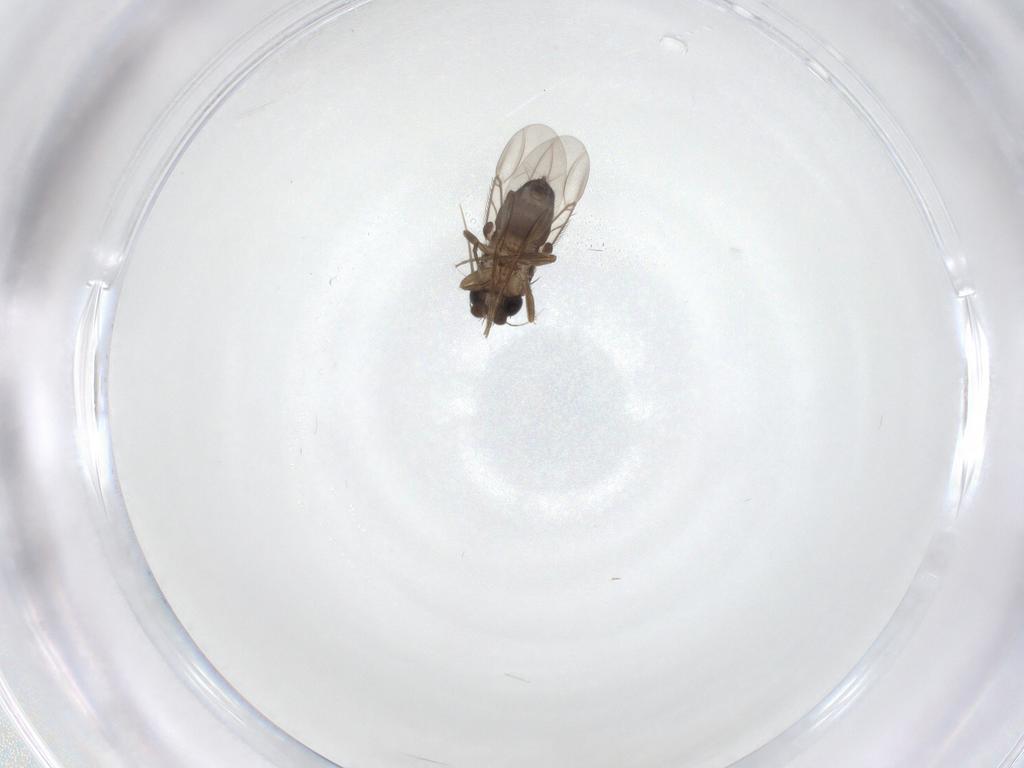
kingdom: Animalia
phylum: Arthropoda
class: Insecta
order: Diptera
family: Phoridae
